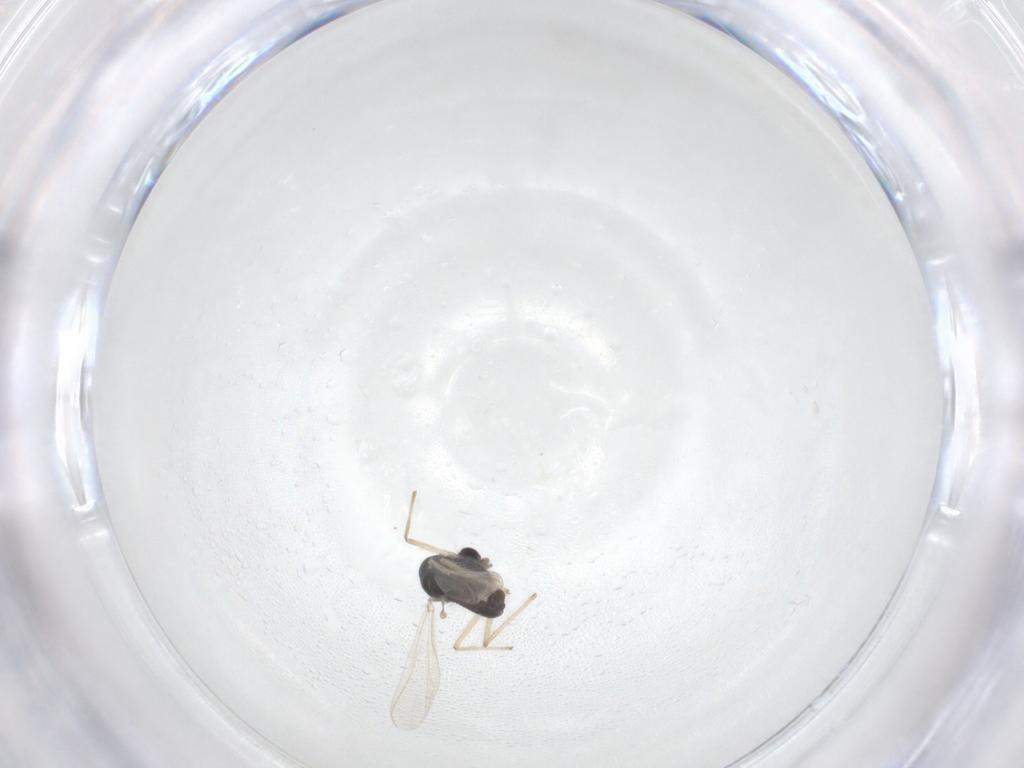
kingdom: Animalia
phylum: Arthropoda
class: Insecta
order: Diptera
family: Chironomidae
